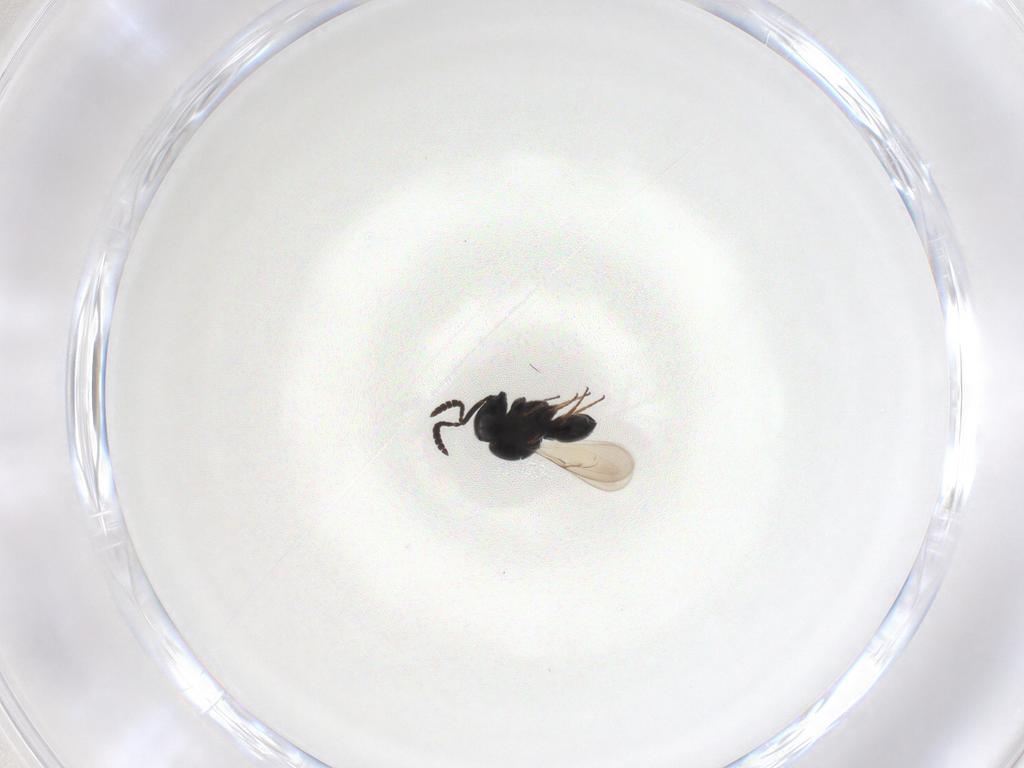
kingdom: Animalia
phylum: Arthropoda
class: Insecta
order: Hymenoptera
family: Scelionidae
